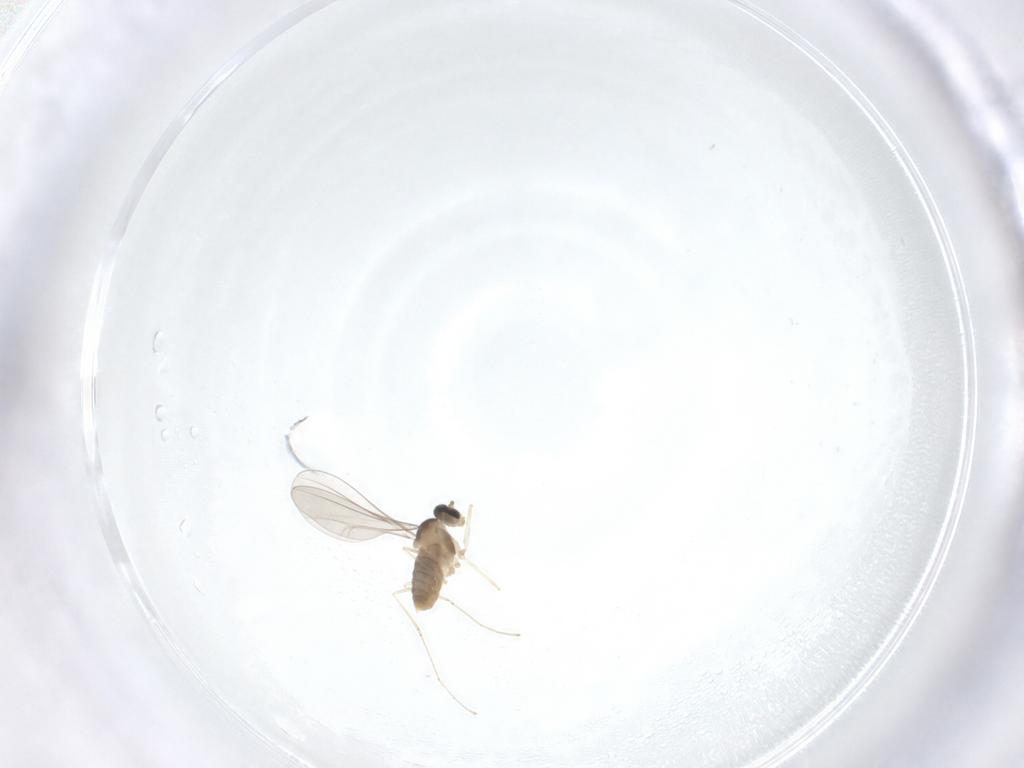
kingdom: Animalia
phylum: Arthropoda
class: Insecta
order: Diptera
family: Cecidomyiidae
